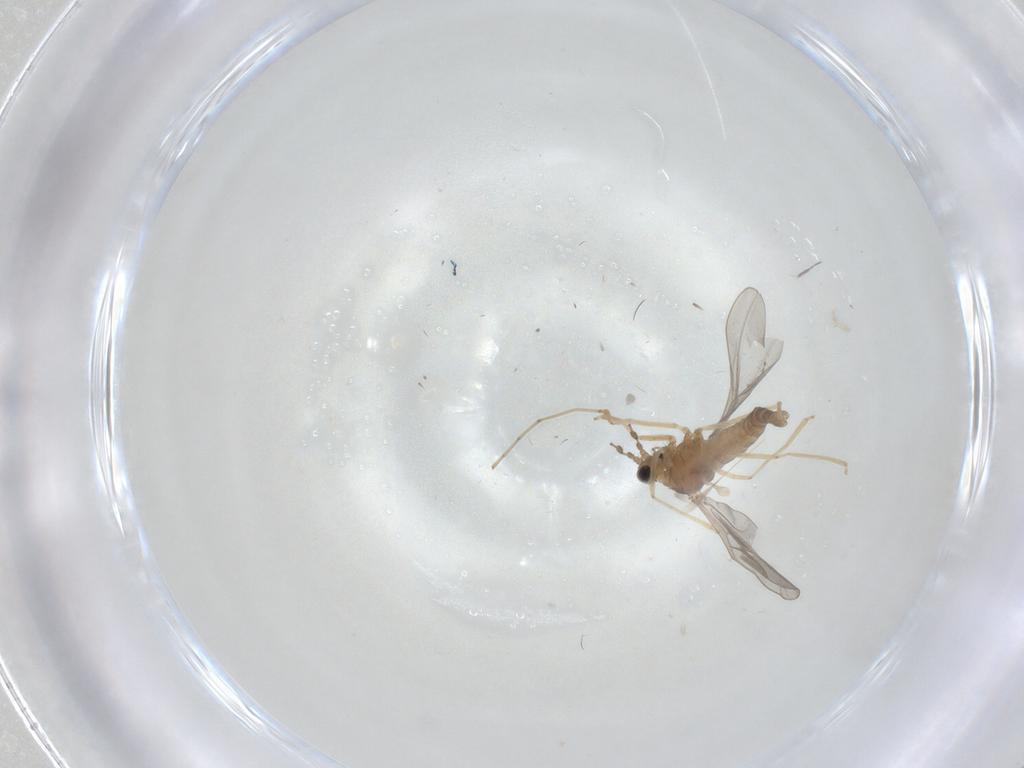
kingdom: Animalia
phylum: Arthropoda
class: Insecta
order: Diptera
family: Cecidomyiidae
